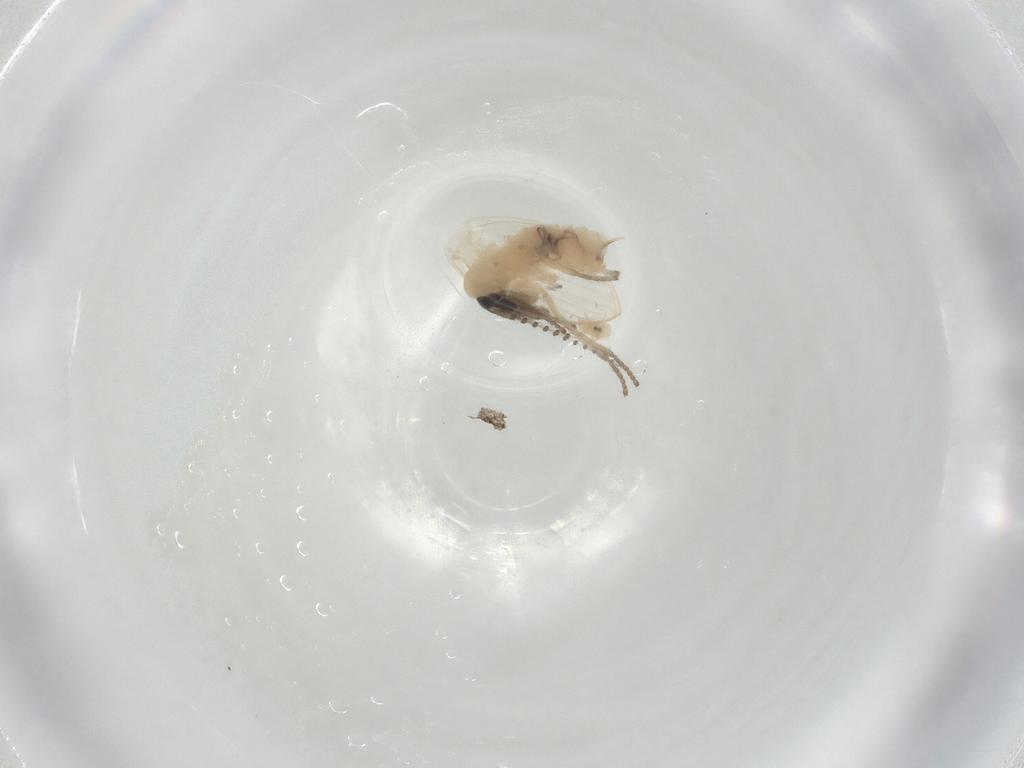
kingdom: Animalia
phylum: Arthropoda
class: Insecta
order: Diptera
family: Psychodidae
